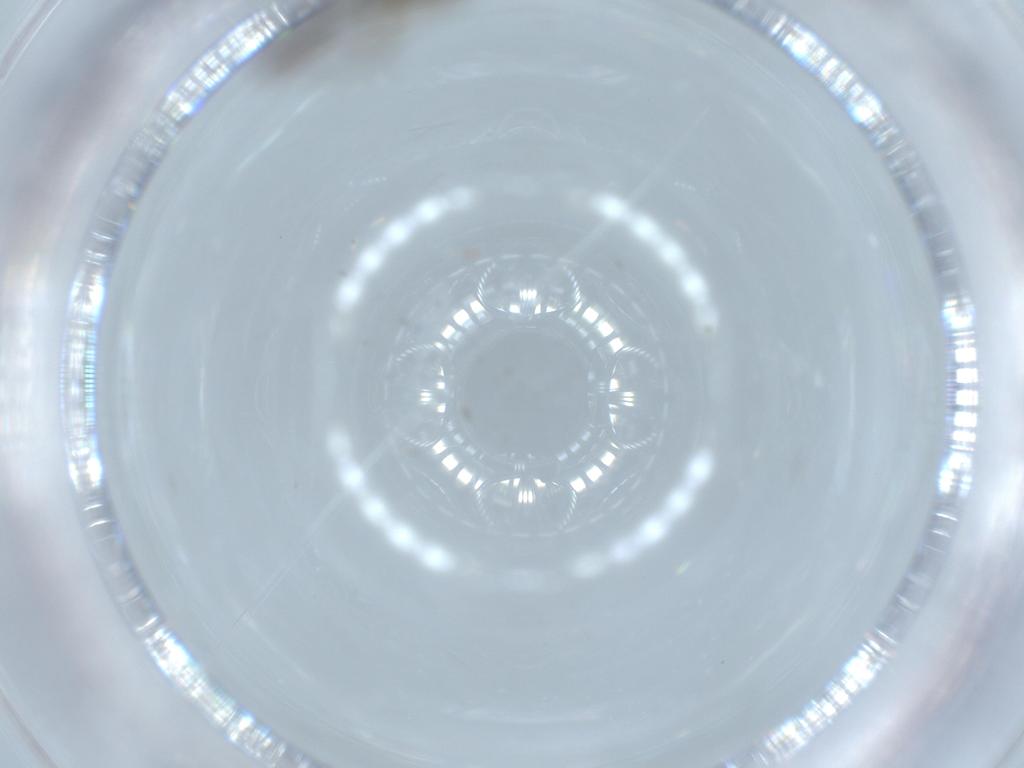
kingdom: Animalia
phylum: Arthropoda
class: Insecta
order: Diptera
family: Chironomidae
